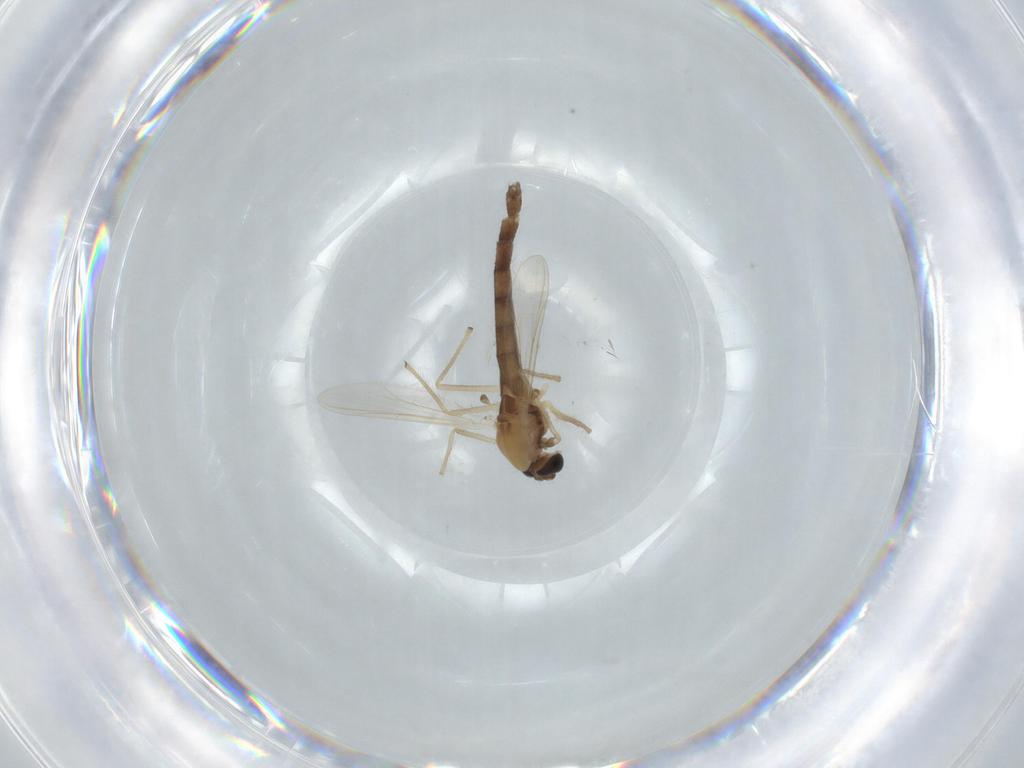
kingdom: Animalia
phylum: Arthropoda
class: Insecta
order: Diptera
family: Chironomidae
